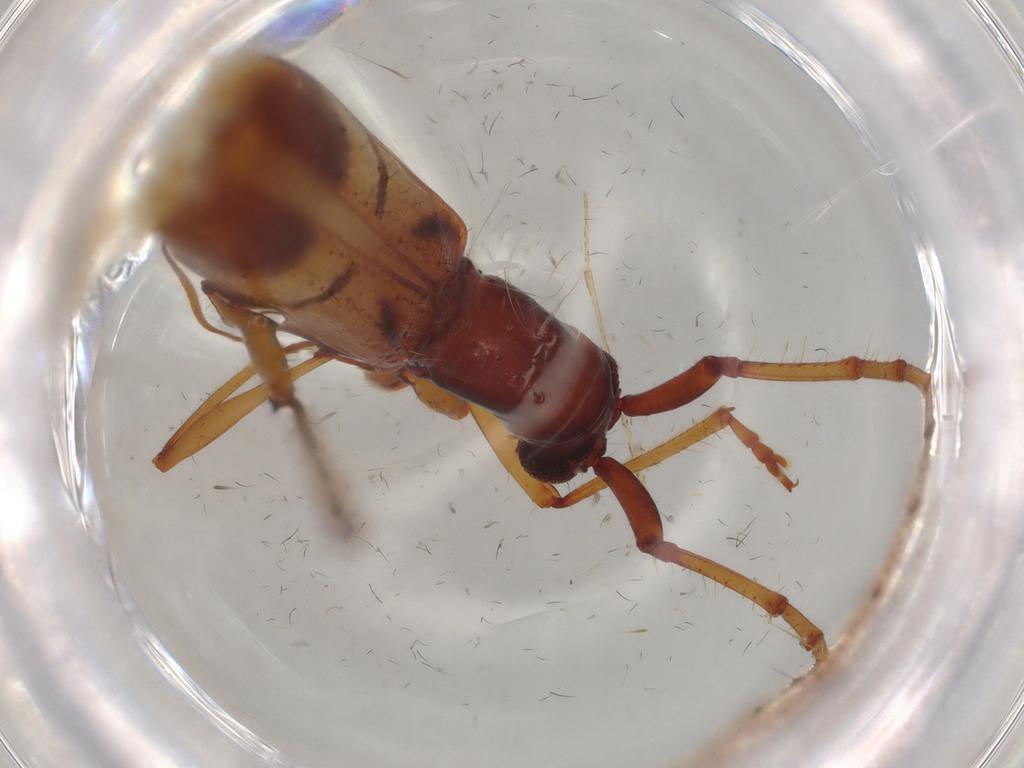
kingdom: Animalia
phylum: Arthropoda
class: Insecta
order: Coleoptera
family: Cerambycidae
